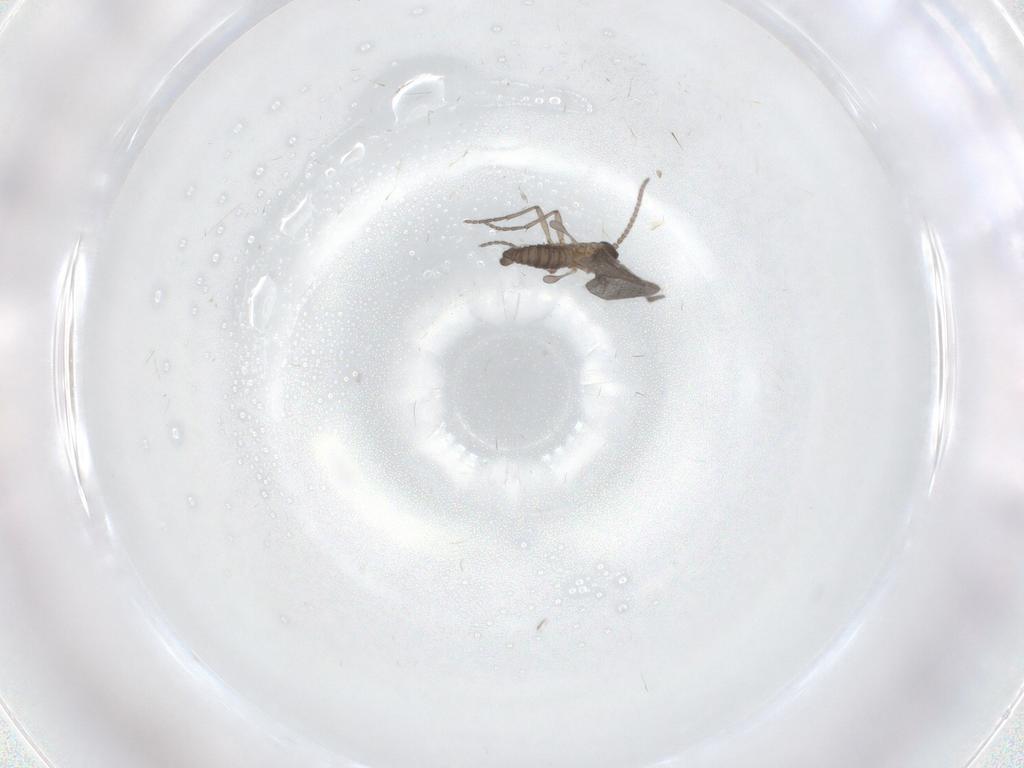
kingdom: Animalia
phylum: Arthropoda
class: Insecta
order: Diptera
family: Sciaridae
